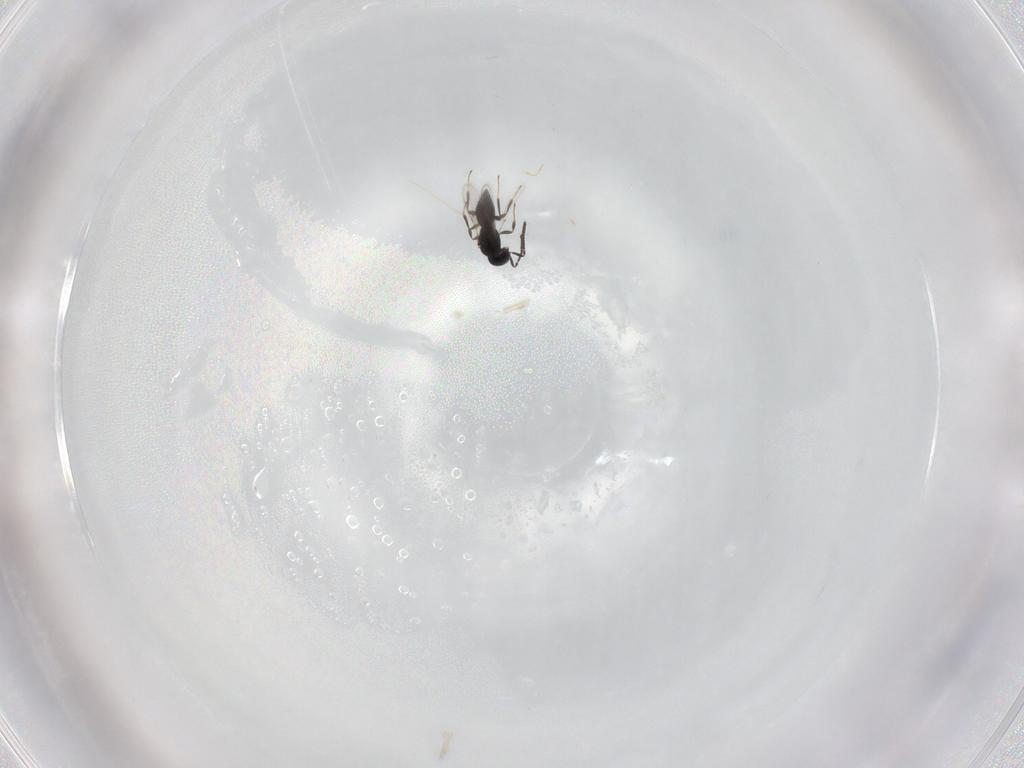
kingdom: Animalia
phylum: Arthropoda
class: Insecta
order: Hymenoptera
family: Scelionidae
